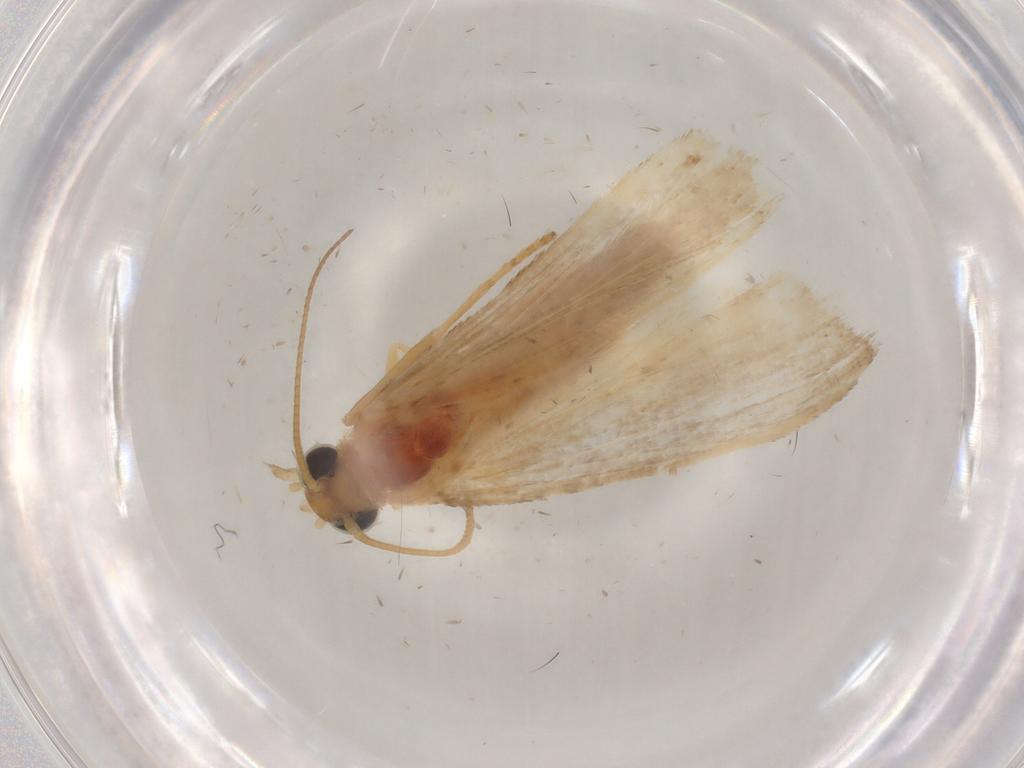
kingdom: Animalia
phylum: Arthropoda
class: Insecta
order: Lepidoptera
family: Pyralidae
